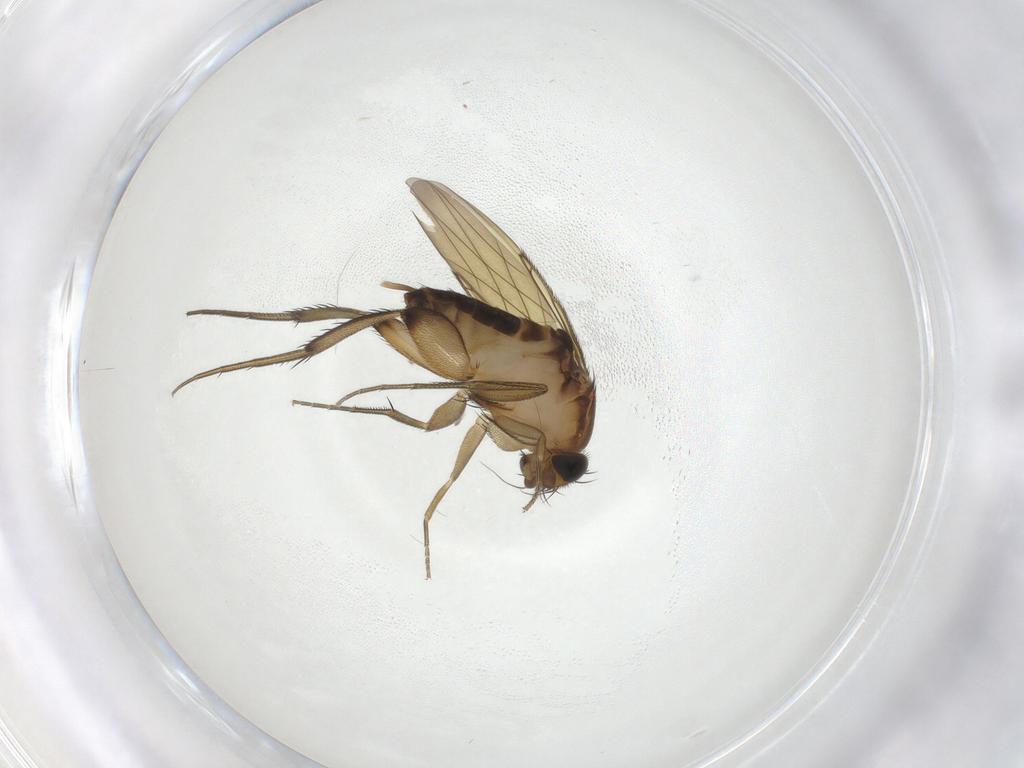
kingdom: Animalia
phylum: Arthropoda
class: Insecta
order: Diptera
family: Phoridae
